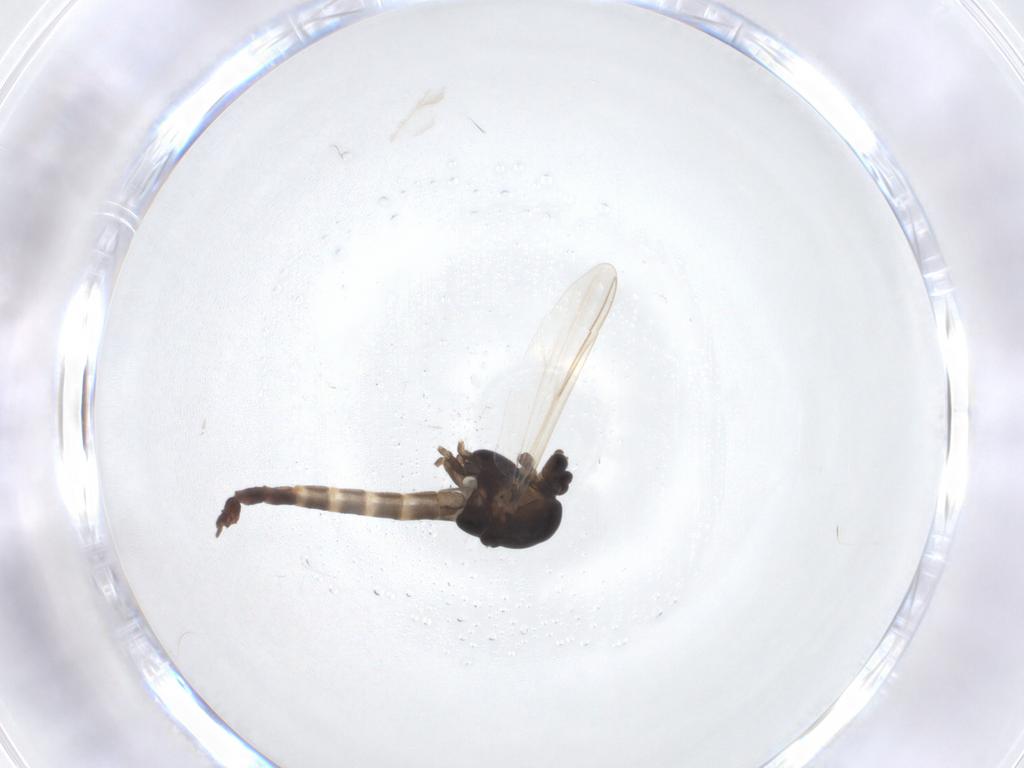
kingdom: Animalia
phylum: Arthropoda
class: Insecta
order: Diptera
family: Chironomidae
